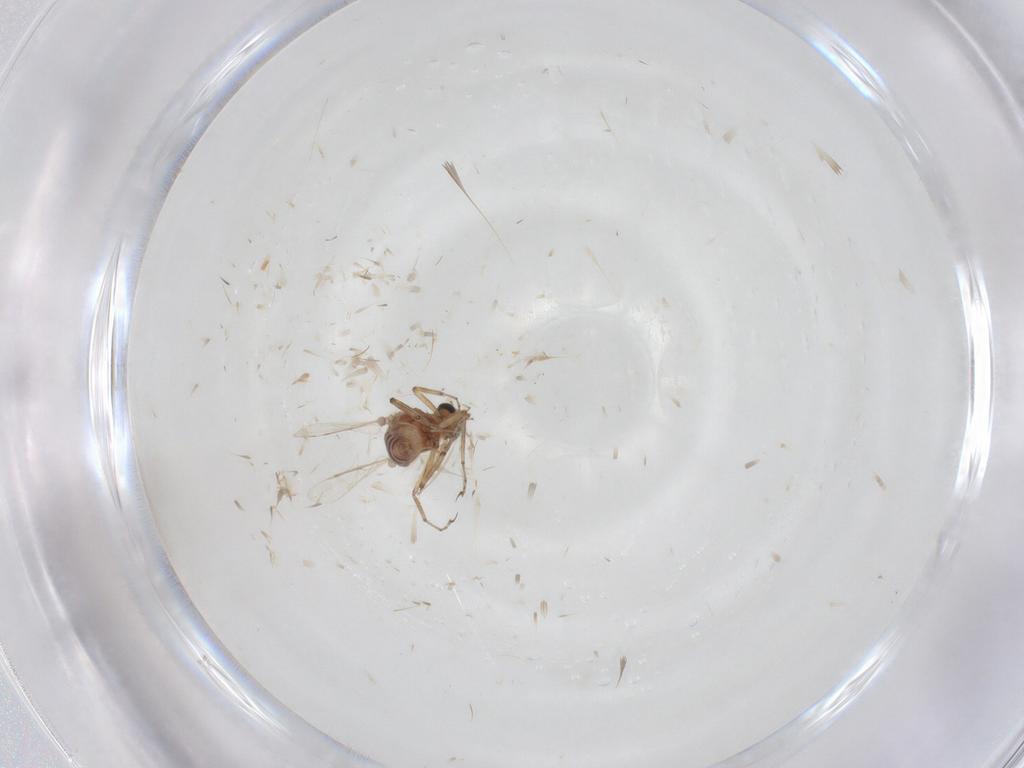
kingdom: Animalia
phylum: Arthropoda
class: Insecta
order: Diptera
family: Ceratopogonidae
